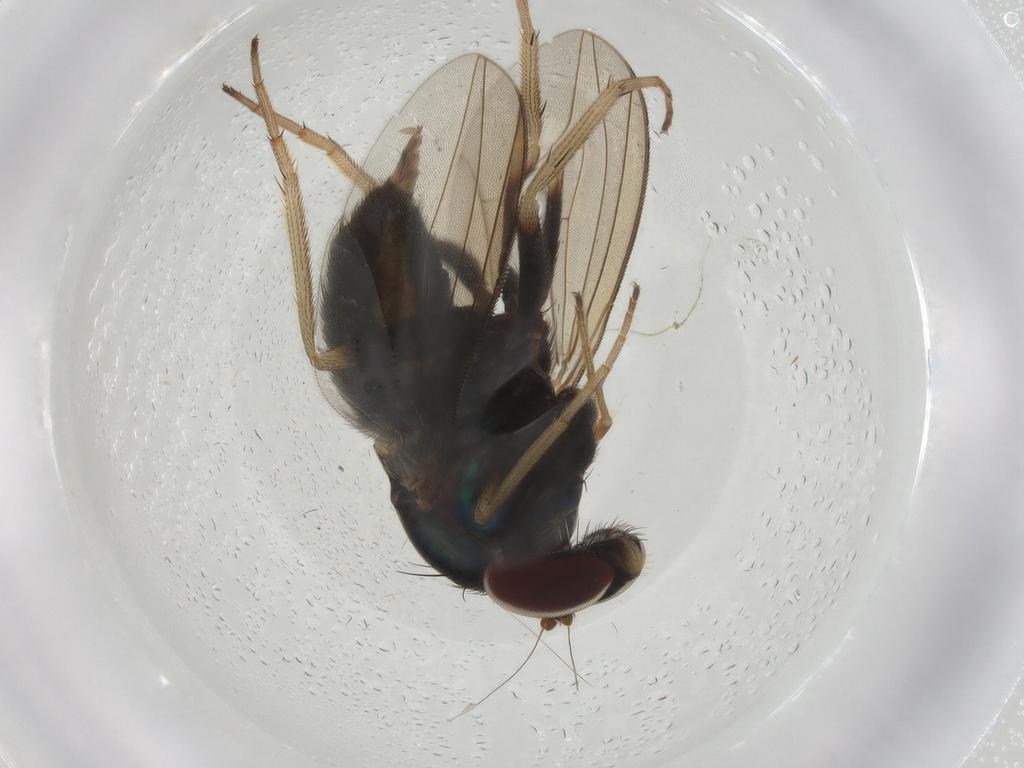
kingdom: Animalia
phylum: Arthropoda
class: Insecta
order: Diptera
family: Dolichopodidae
